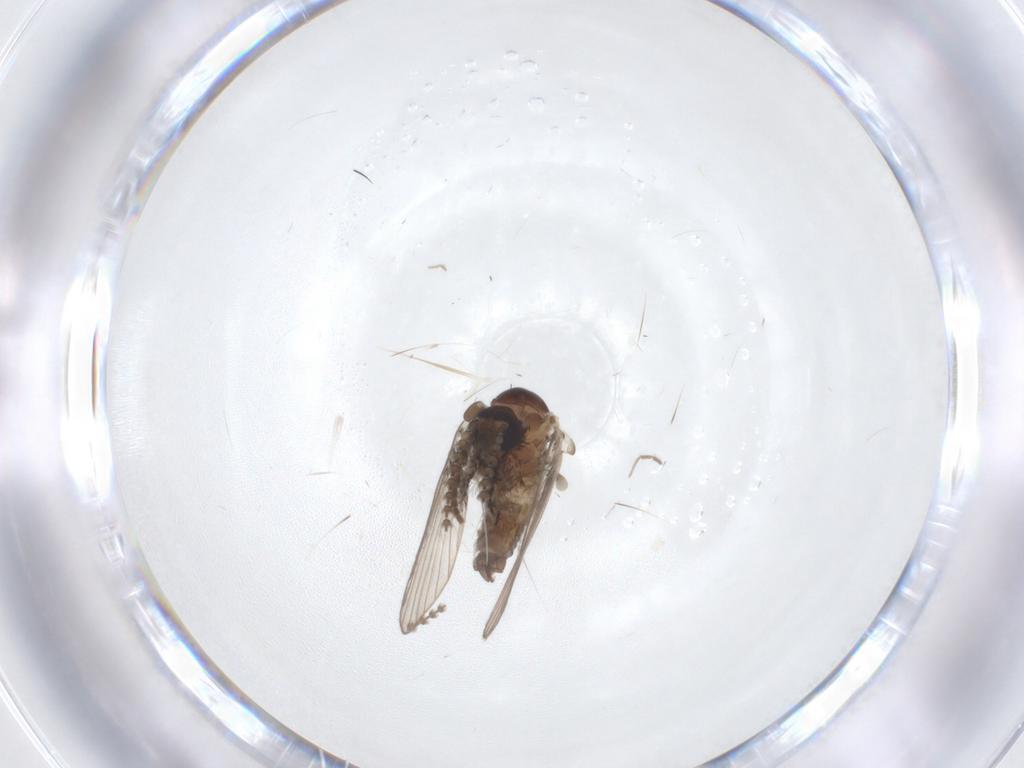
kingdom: Animalia
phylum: Arthropoda
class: Insecta
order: Diptera
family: Psychodidae
